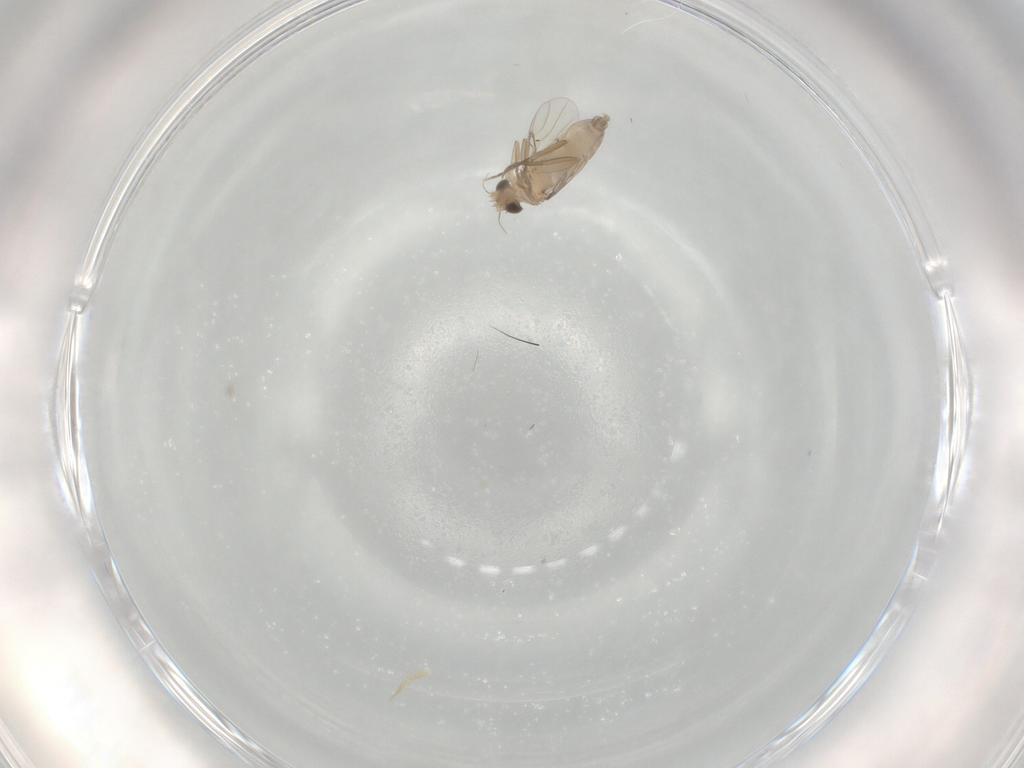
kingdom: Animalia
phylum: Arthropoda
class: Insecta
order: Diptera
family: Phoridae
